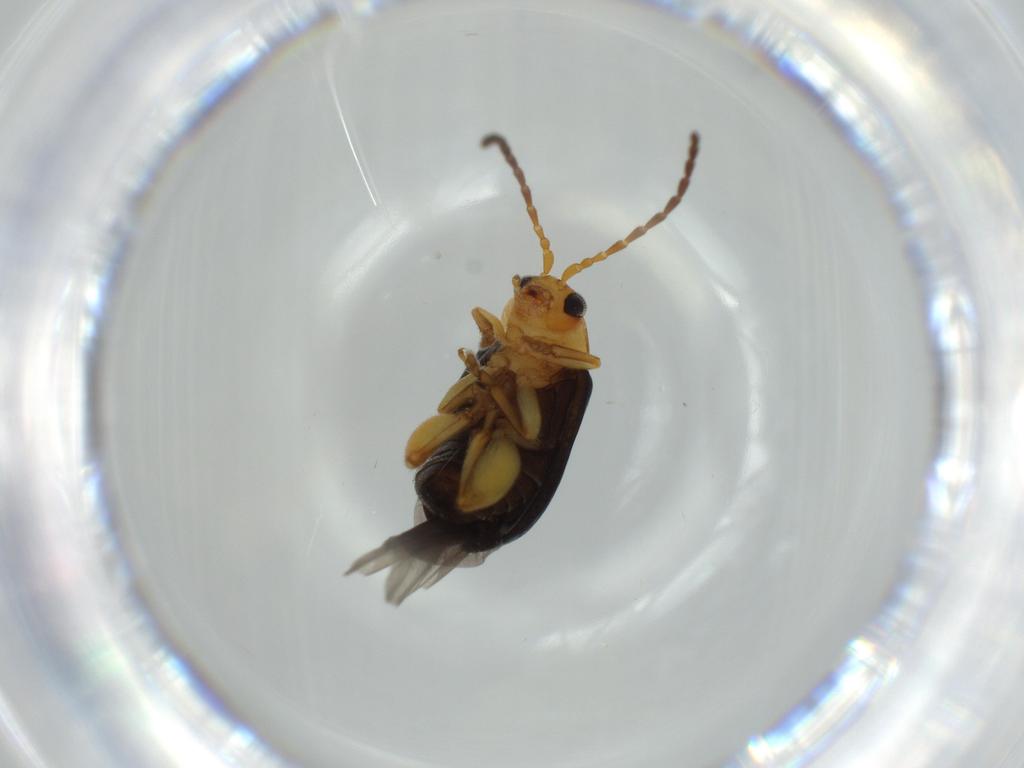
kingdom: Animalia
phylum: Arthropoda
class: Insecta
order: Coleoptera
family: Chrysomelidae
